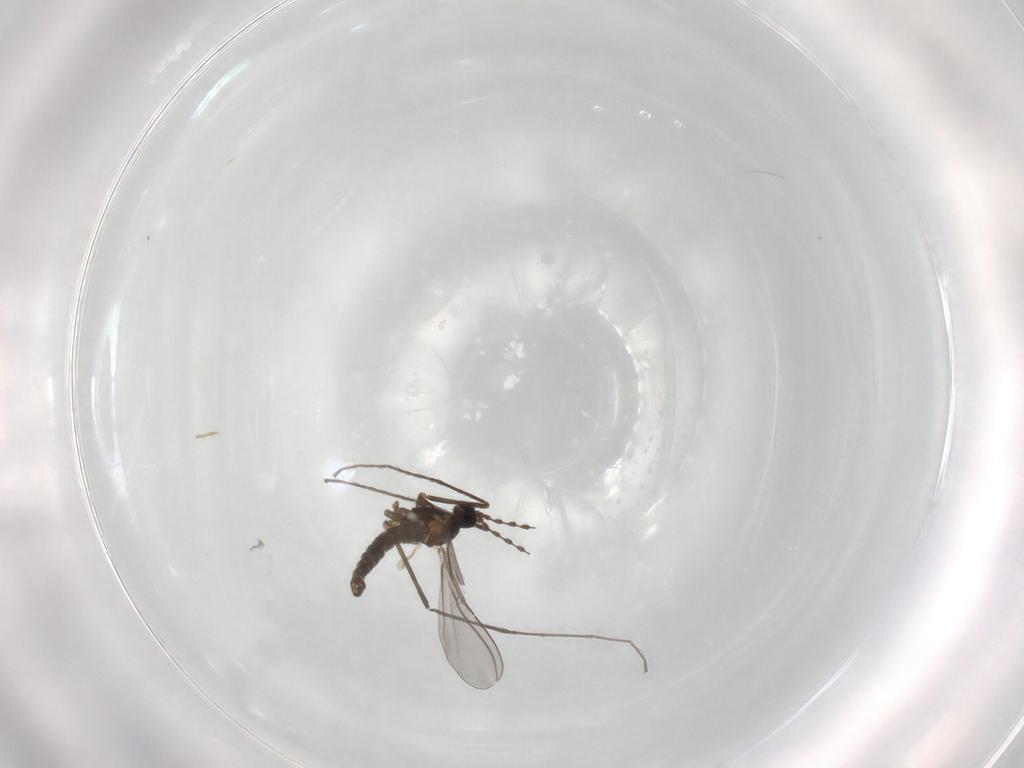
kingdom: Animalia
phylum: Arthropoda
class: Insecta
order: Diptera
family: Cecidomyiidae
